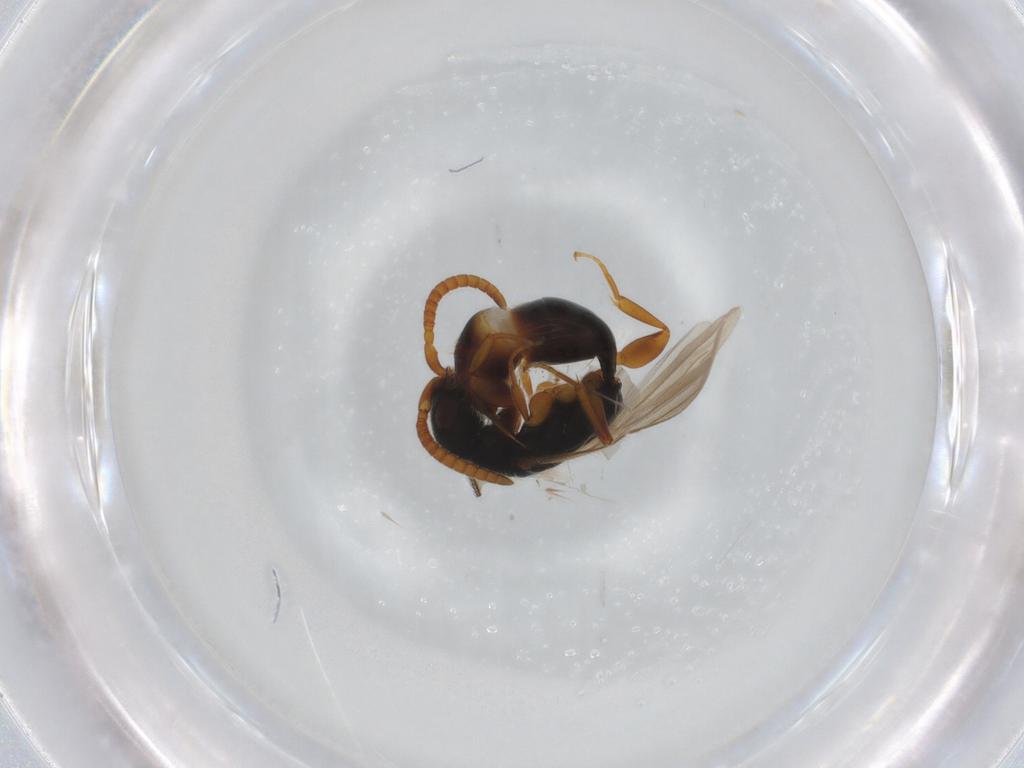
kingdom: Animalia
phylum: Arthropoda
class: Insecta
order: Hymenoptera
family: Bethylidae
